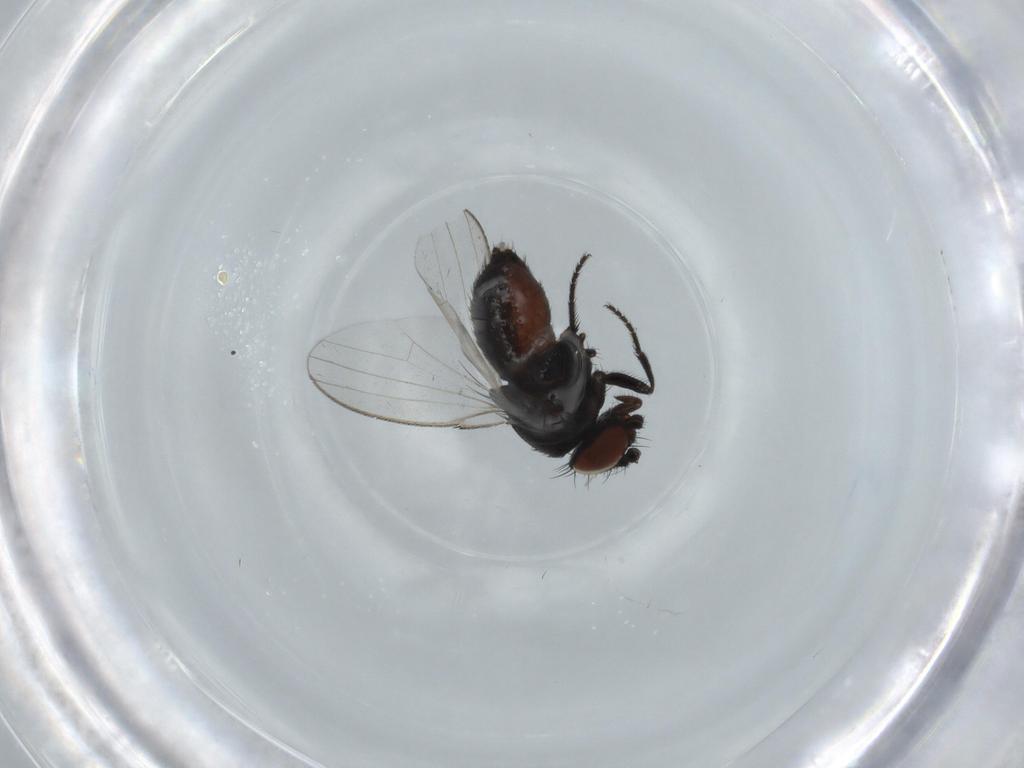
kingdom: Animalia
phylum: Arthropoda
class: Insecta
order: Diptera
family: Milichiidae
